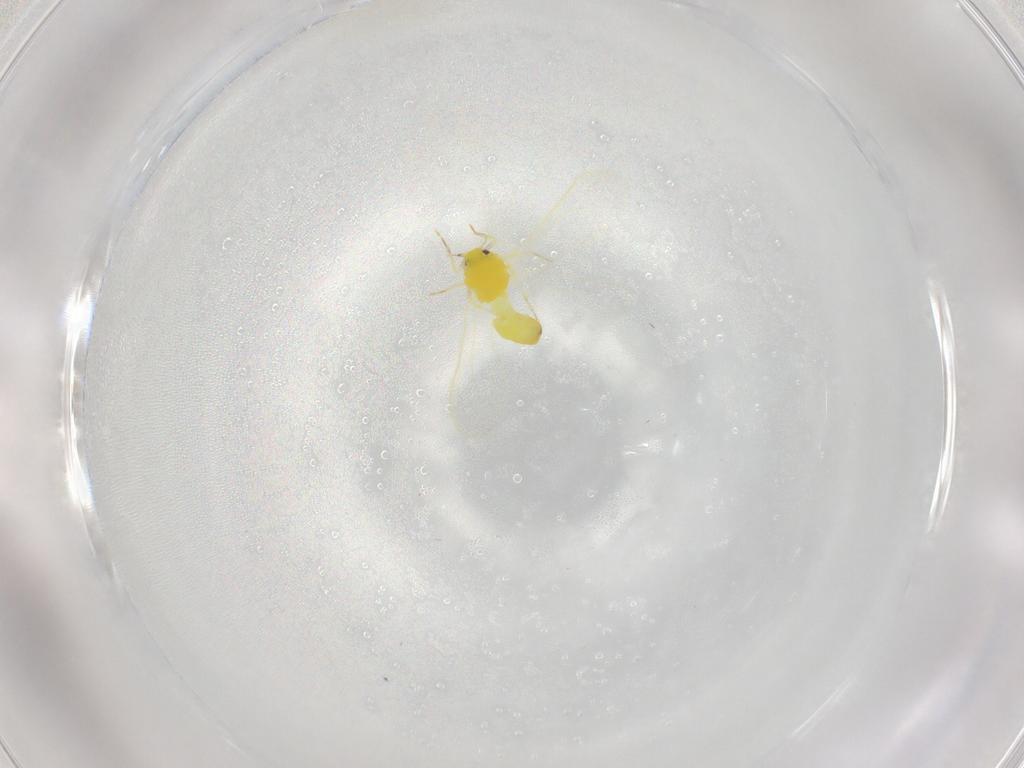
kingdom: Animalia
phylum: Arthropoda
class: Insecta
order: Hemiptera
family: Aleyrodidae
